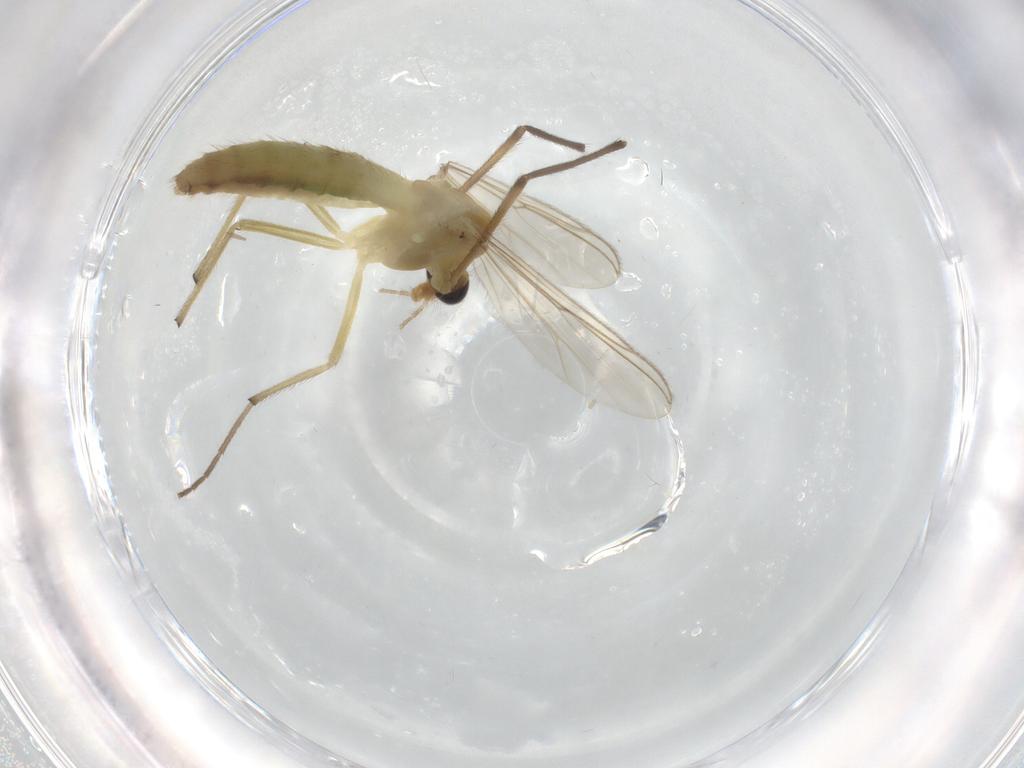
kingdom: Animalia
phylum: Arthropoda
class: Insecta
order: Diptera
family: Chironomidae
